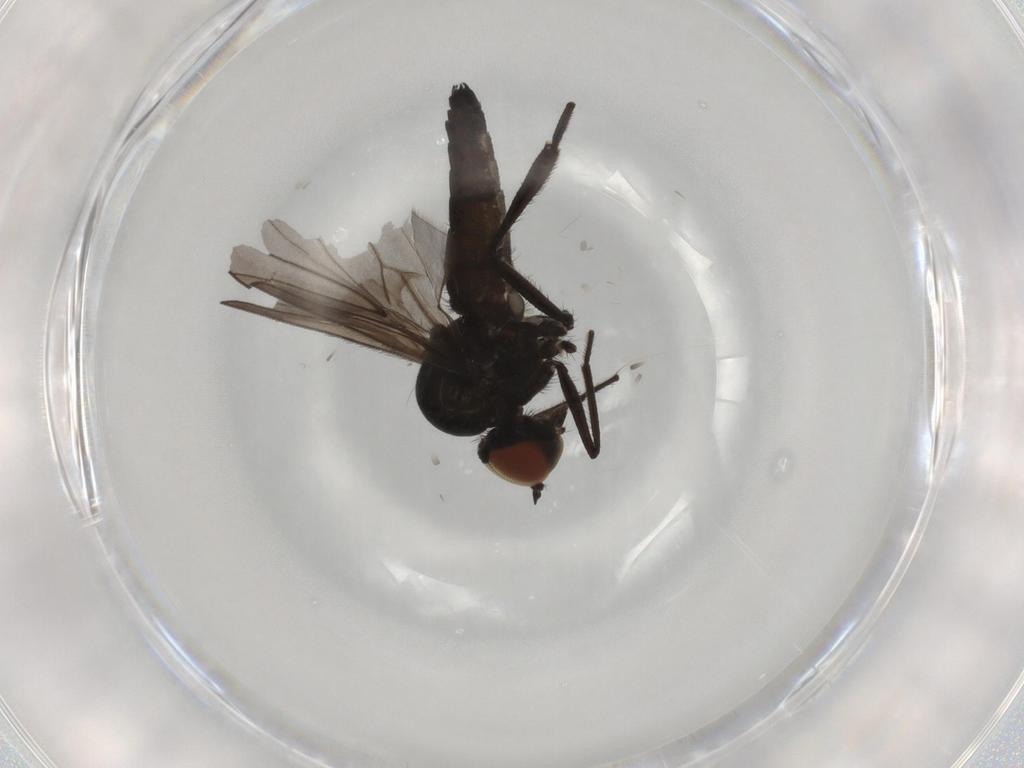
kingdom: Animalia
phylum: Arthropoda
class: Insecta
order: Diptera
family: Hybotidae
